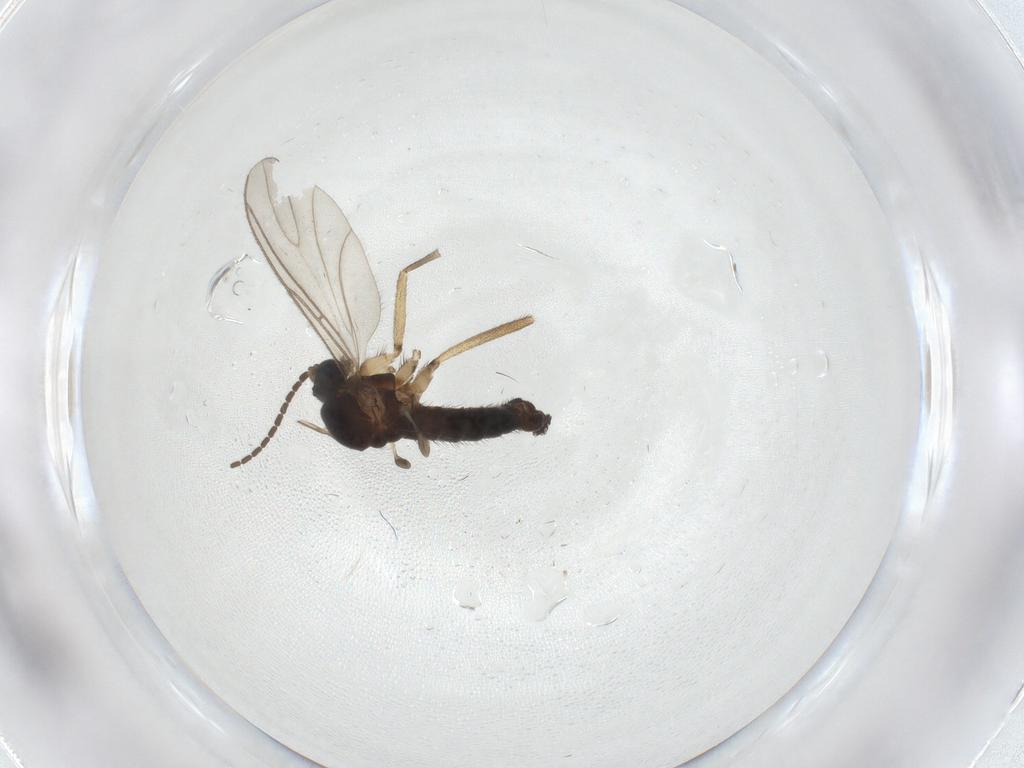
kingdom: Animalia
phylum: Arthropoda
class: Insecta
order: Diptera
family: Sciaridae
